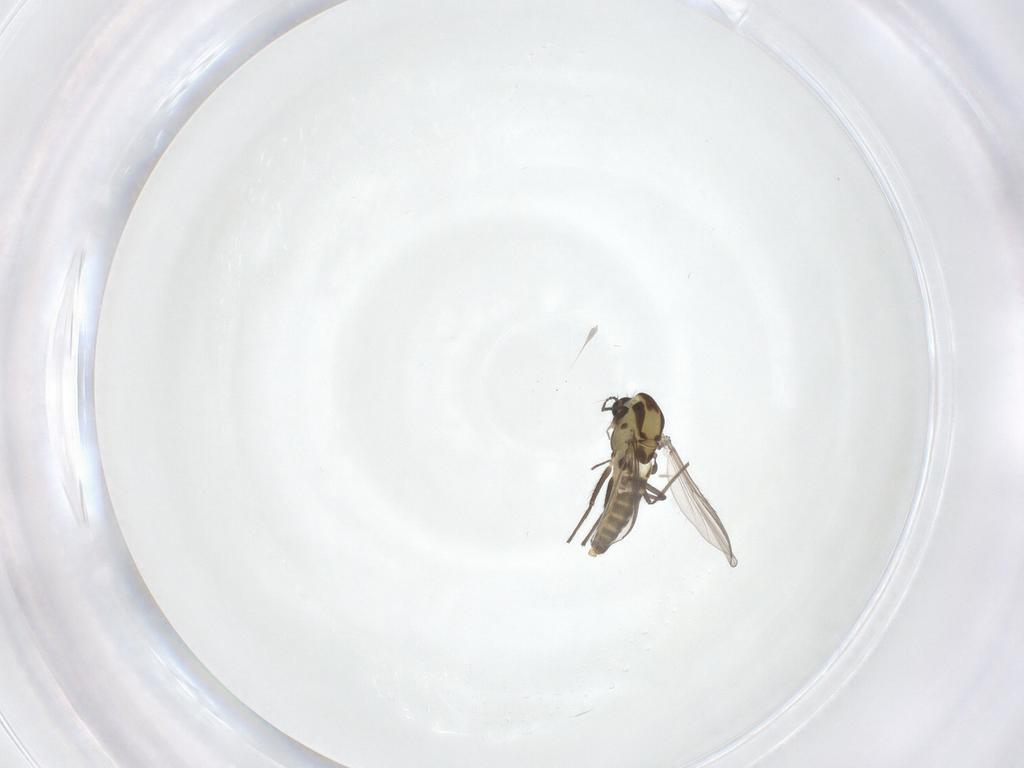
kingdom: Animalia
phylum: Arthropoda
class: Insecta
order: Diptera
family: Chironomidae
